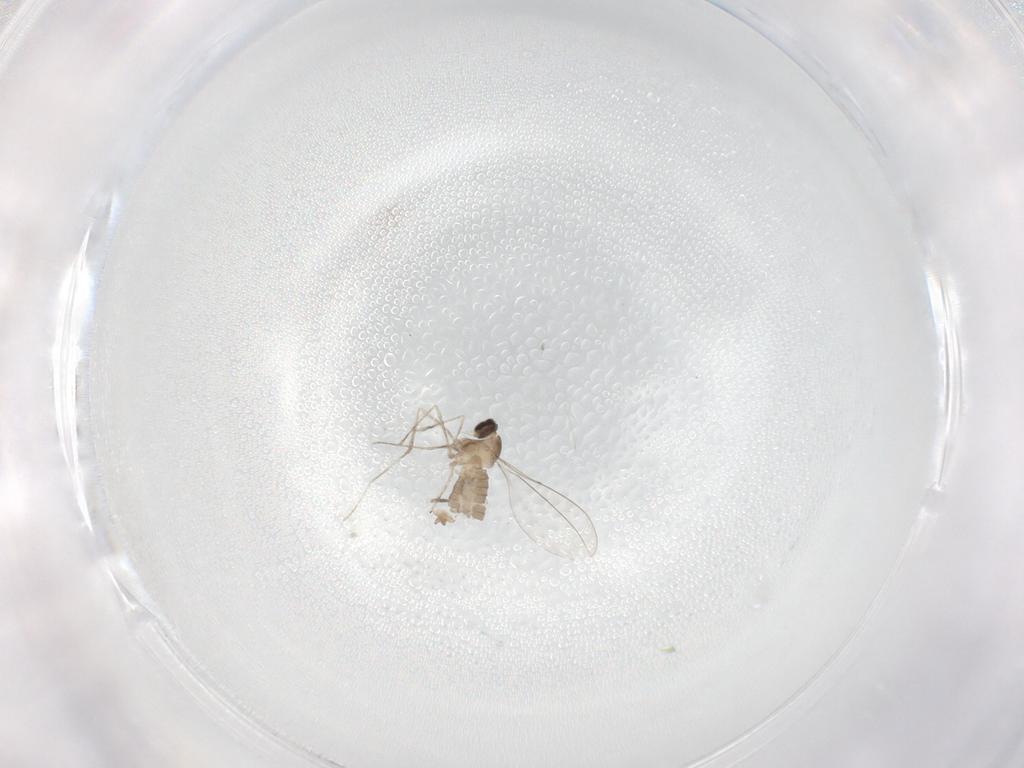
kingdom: Animalia
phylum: Arthropoda
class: Insecta
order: Diptera
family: Cecidomyiidae
